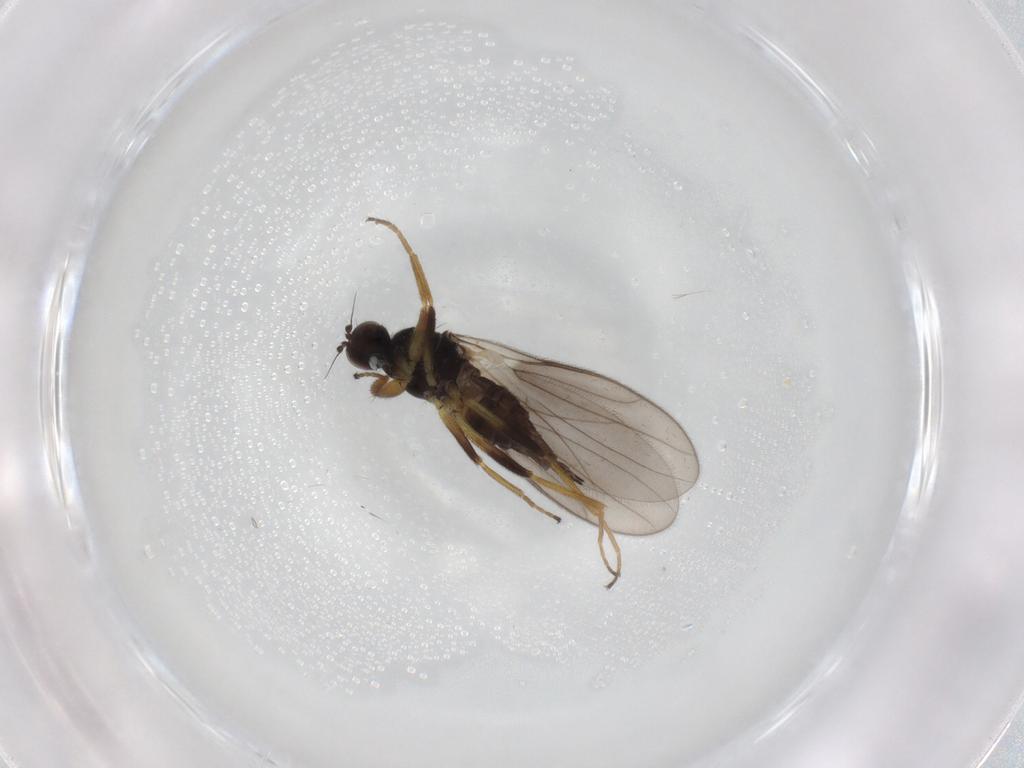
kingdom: Animalia
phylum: Arthropoda
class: Insecta
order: Diptera
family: Hybotidae
